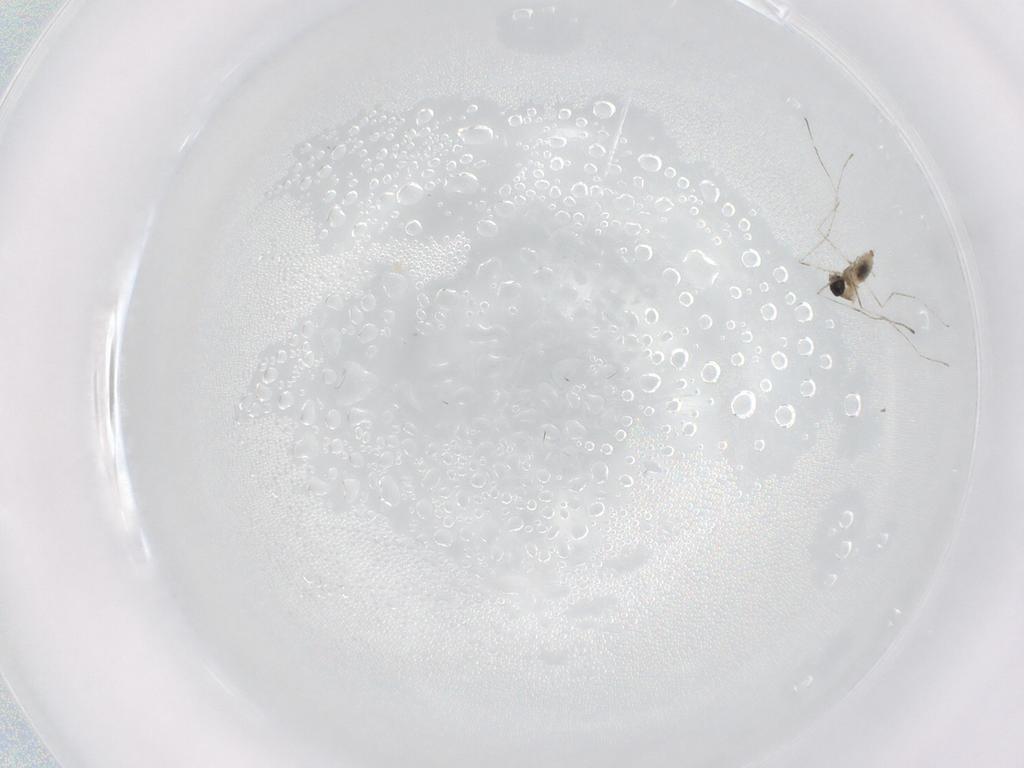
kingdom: Animalia
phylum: Arthropoda
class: Insecta
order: Diptera
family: Cecidomyiidae
